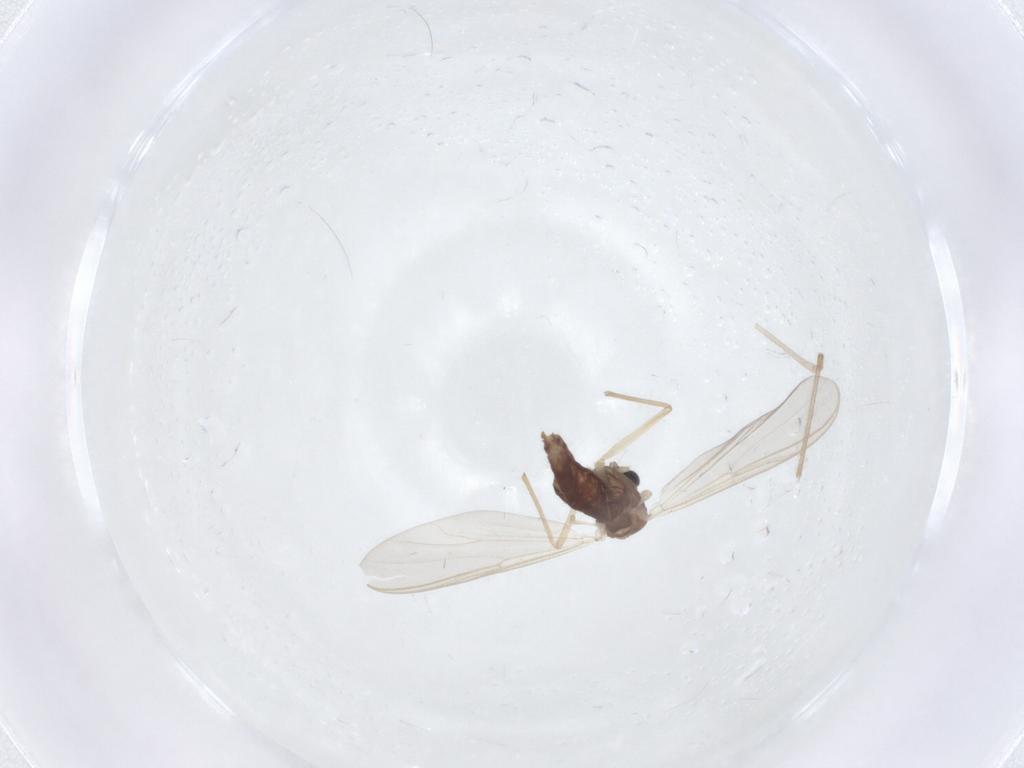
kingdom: Animalia
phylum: Arthropoda
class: Insecta
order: Diptera
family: Chironomidae
